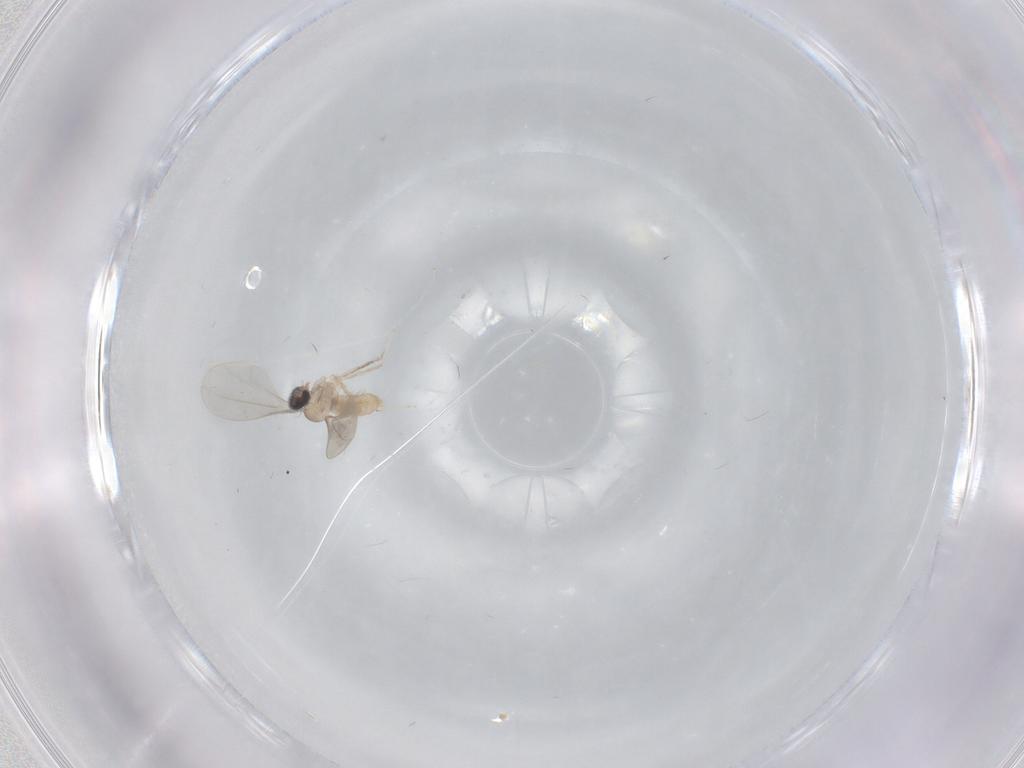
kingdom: Animalia
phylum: Arthropoda
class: Insecta
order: Diptera
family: Cecidomyiidae
